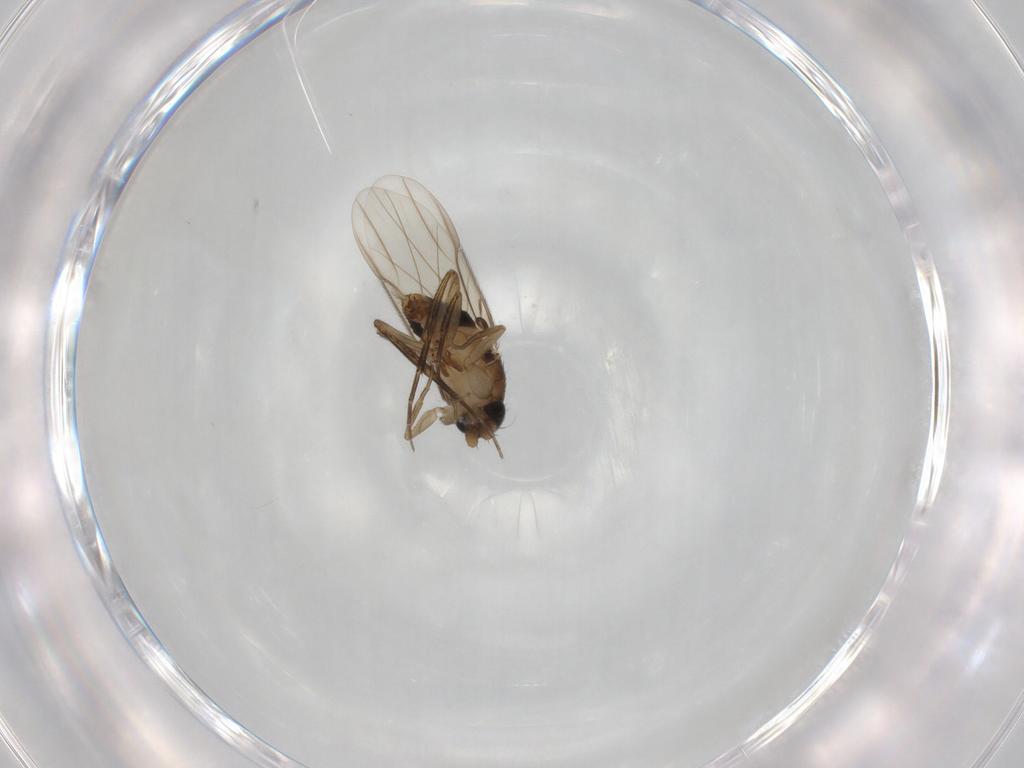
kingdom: Animalia
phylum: Arthropoda
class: Insecta
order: Diptera
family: Phoridae
